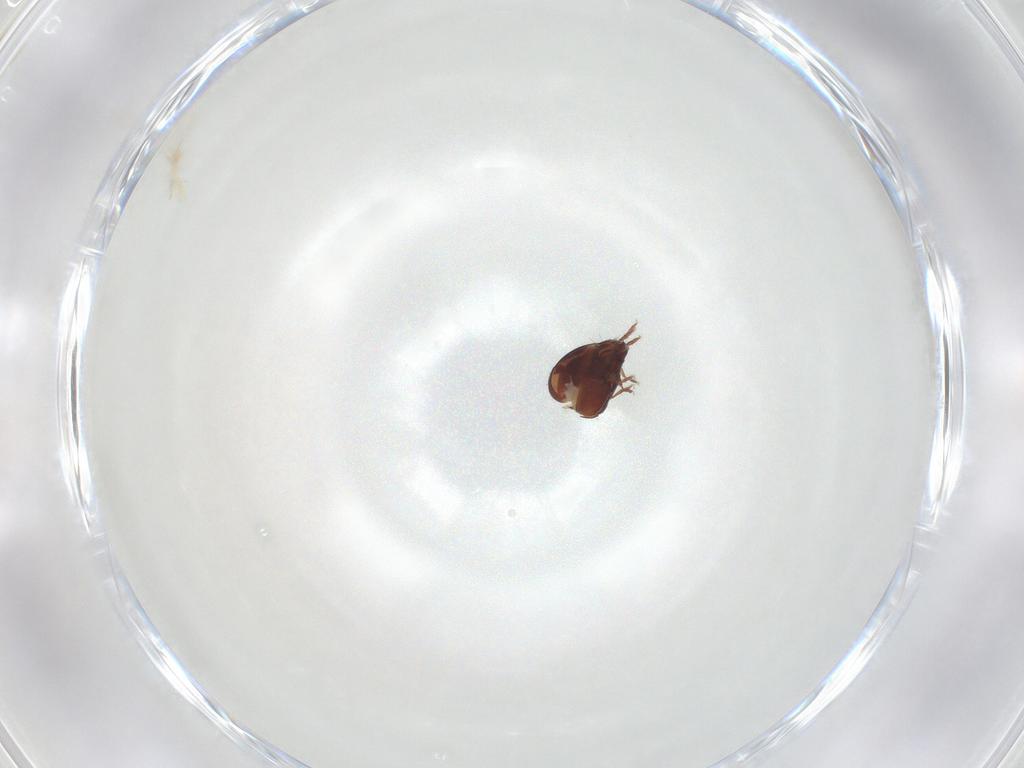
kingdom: Animalia
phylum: Arthropoda
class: Arachnida
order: Sarcoptiformes
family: Humerobatidae
